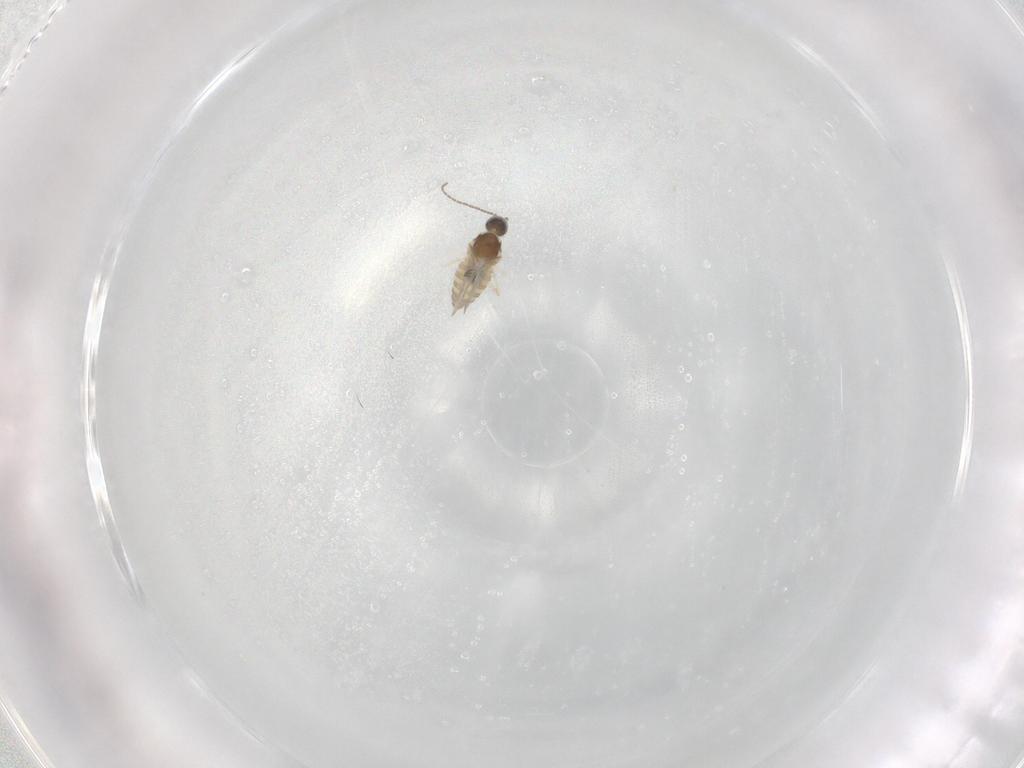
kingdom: Animalia
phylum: Arthropoda
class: Insecta
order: Diptera
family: Cecidomyiidae
